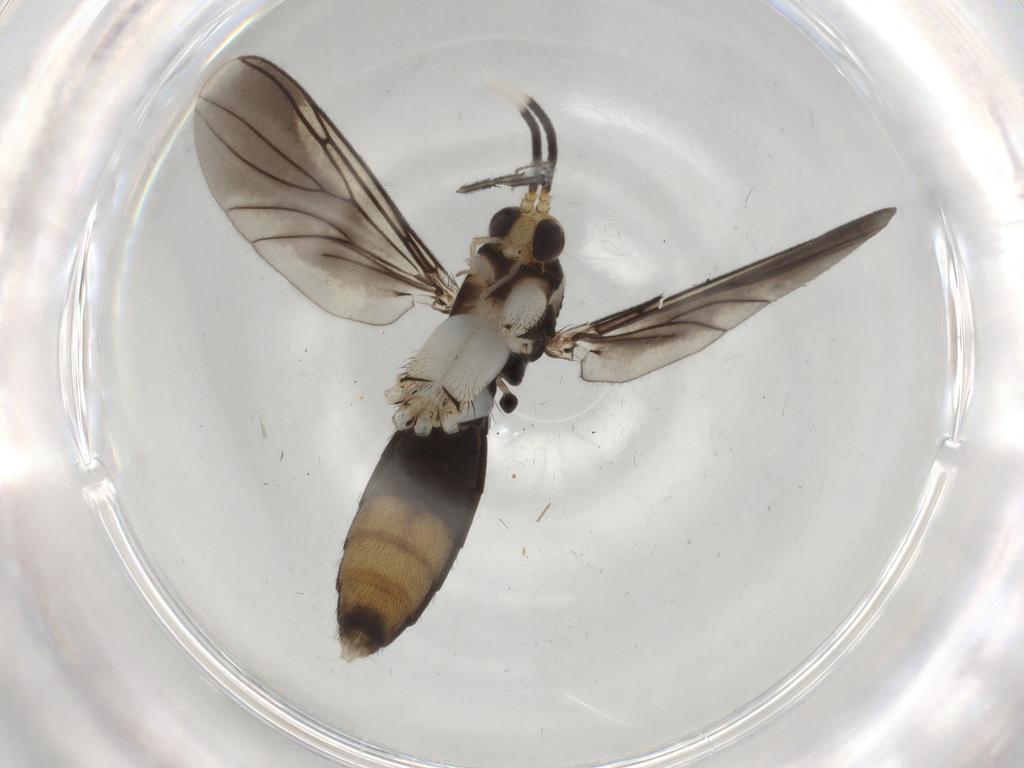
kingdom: Animalia
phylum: Arthropoda
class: Insecta
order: Diptera
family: Mycetophilidae
